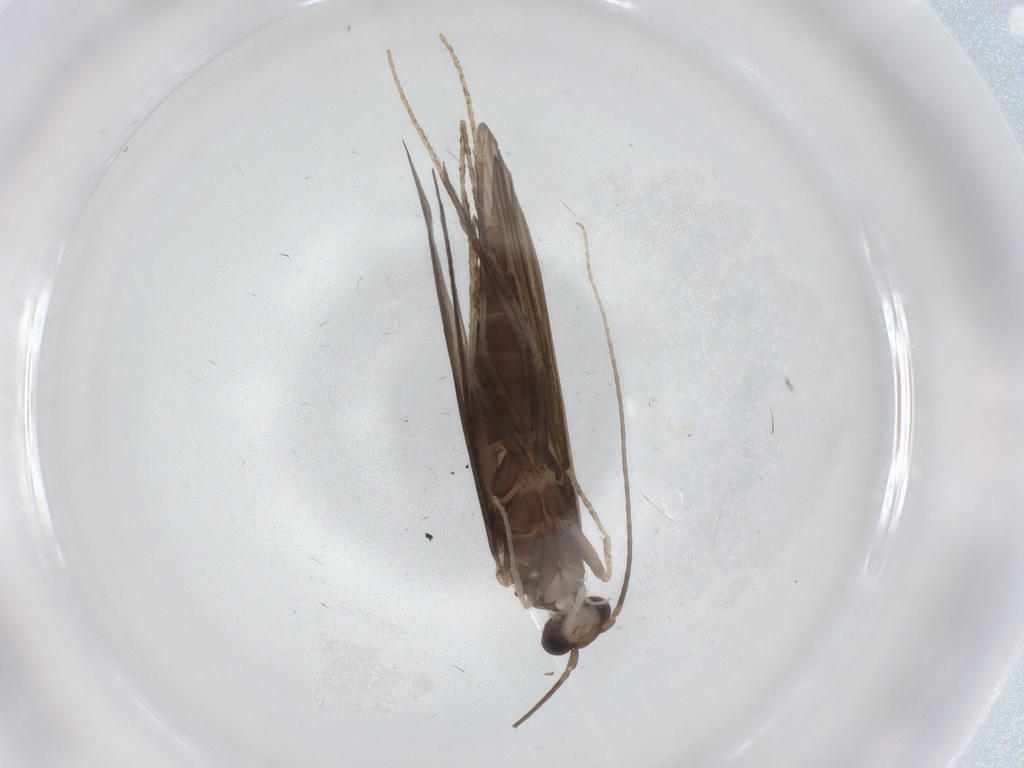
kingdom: Animalia
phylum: Arthropoda
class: Insecta
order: Trichoptera
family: Xiphocentronidae
